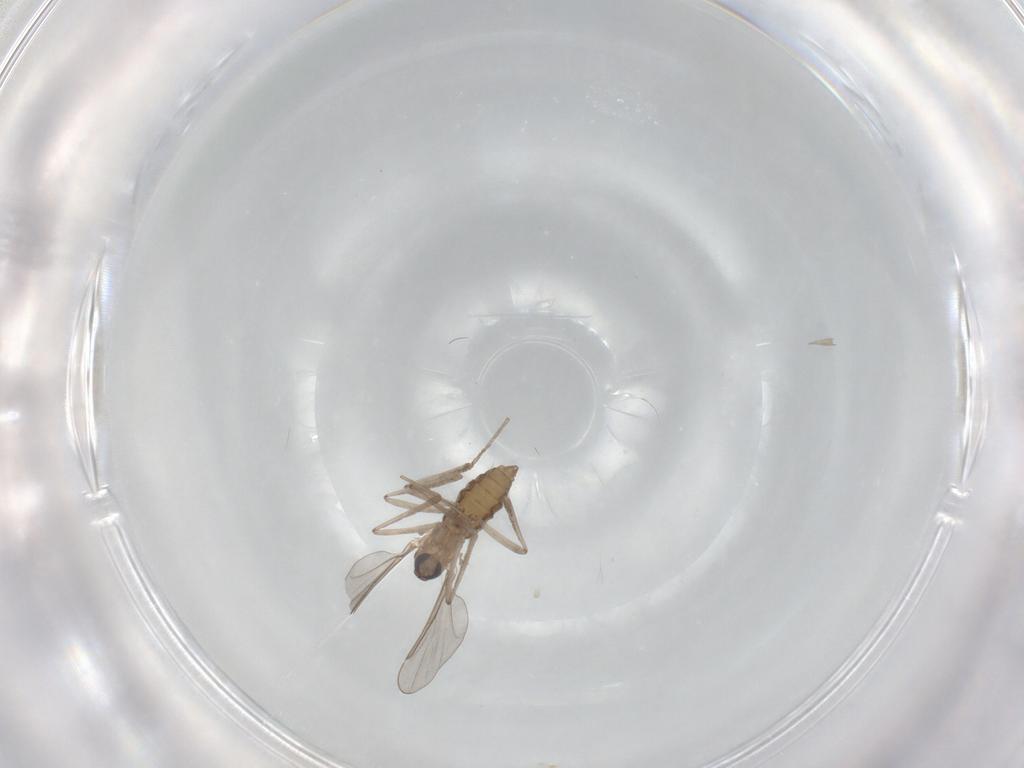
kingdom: Animalia
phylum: Arthropoda
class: Insecta
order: Diptera
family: Cecidomyiidae
